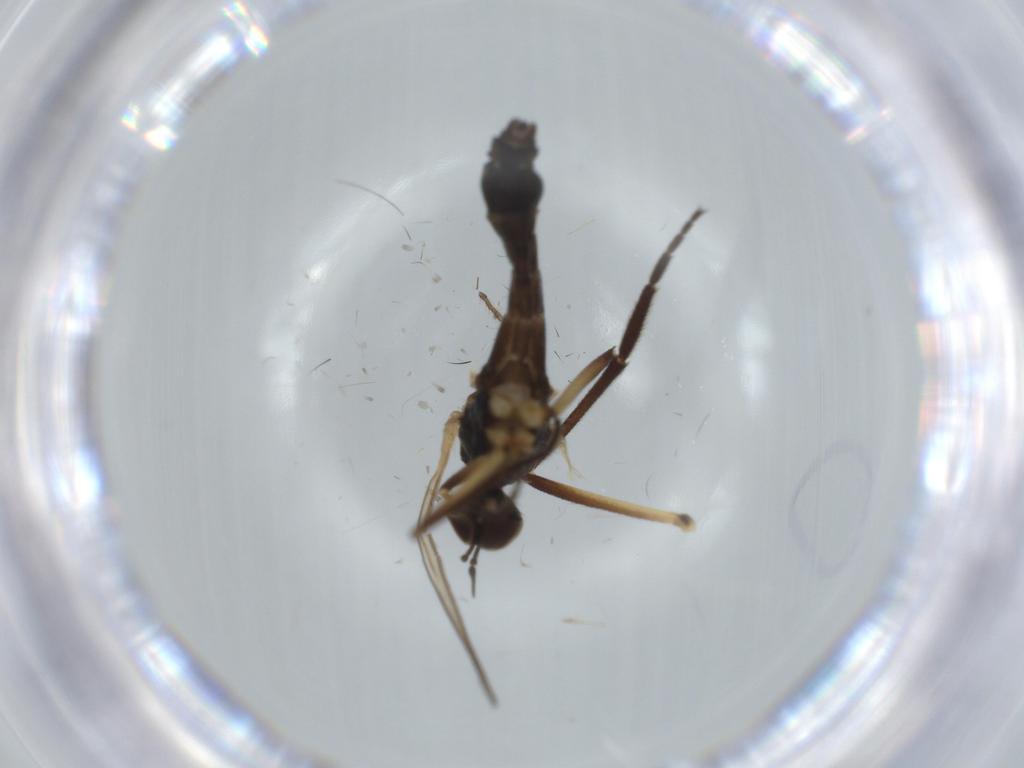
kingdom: Animalia
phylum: Arthropoda
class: Insecta
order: Diptera
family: Empididae
